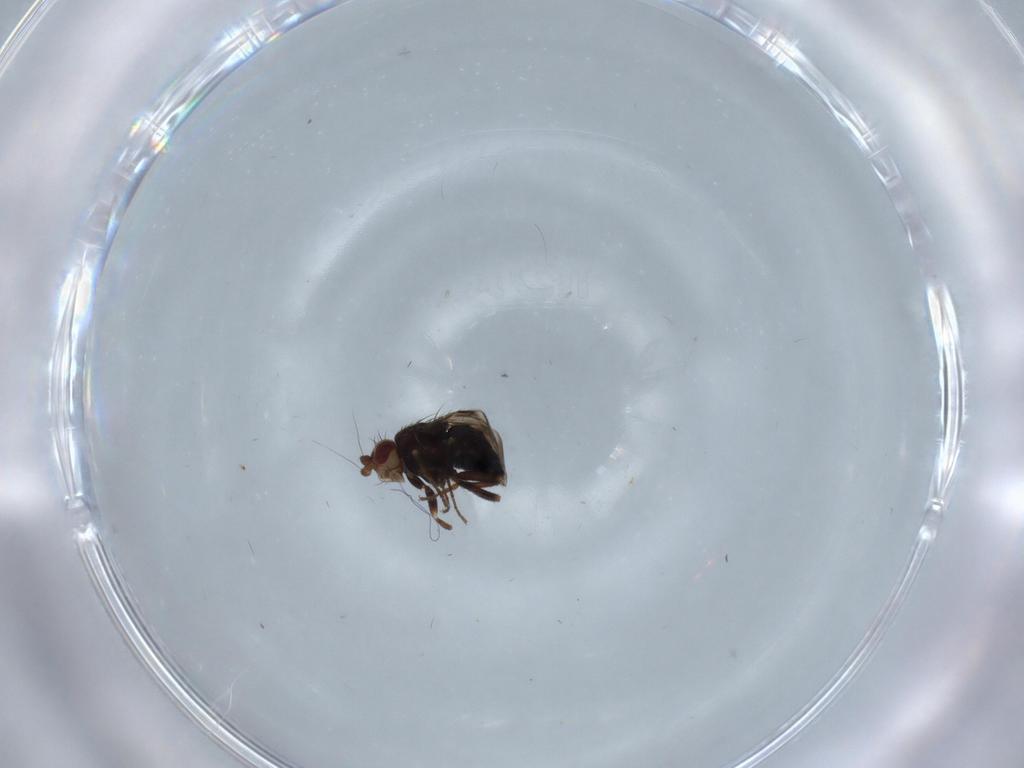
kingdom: Animalia
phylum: Arthropoda
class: Insecta
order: Diptera
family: Sphaeroceridae
